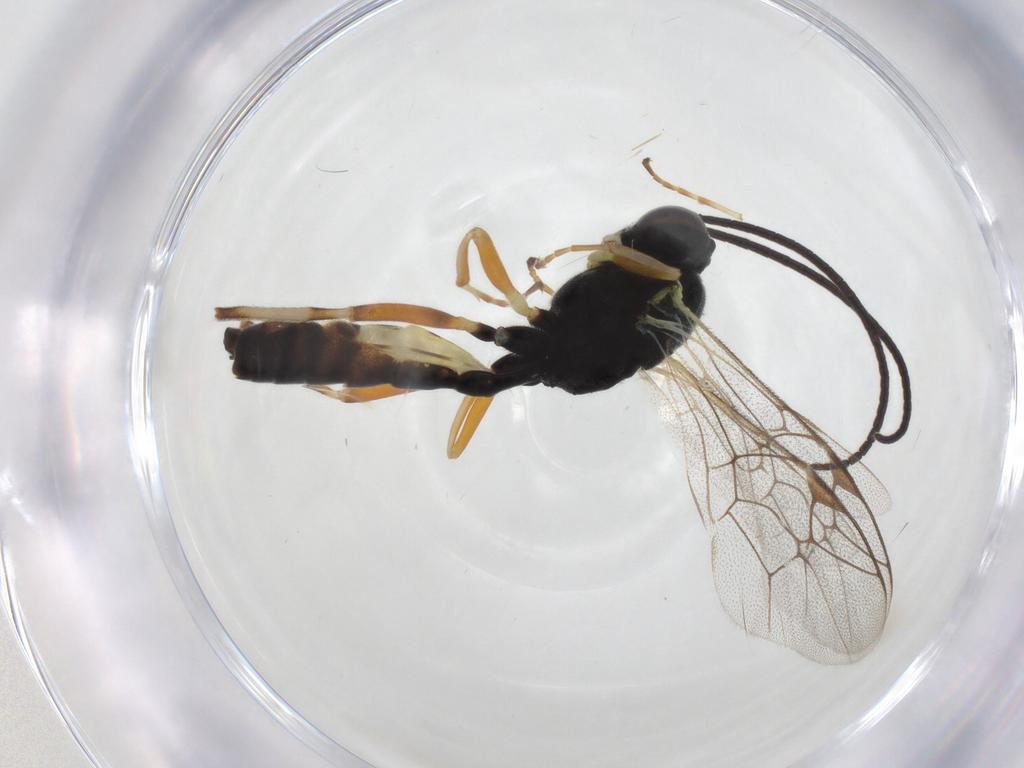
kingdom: Animalia
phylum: Arthropoda
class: Insecta
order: Hymenoptera
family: Ichneumonidae
